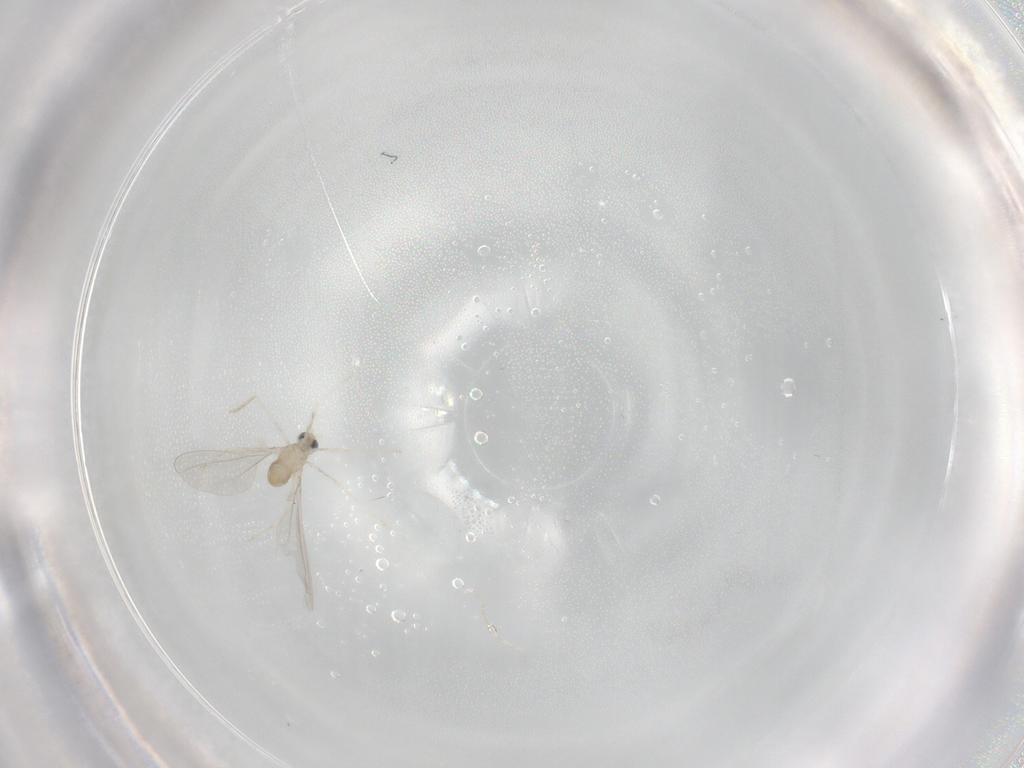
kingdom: Animalia
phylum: Arthropoda
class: Insecta
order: Diptera
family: Cecidomyiidae
